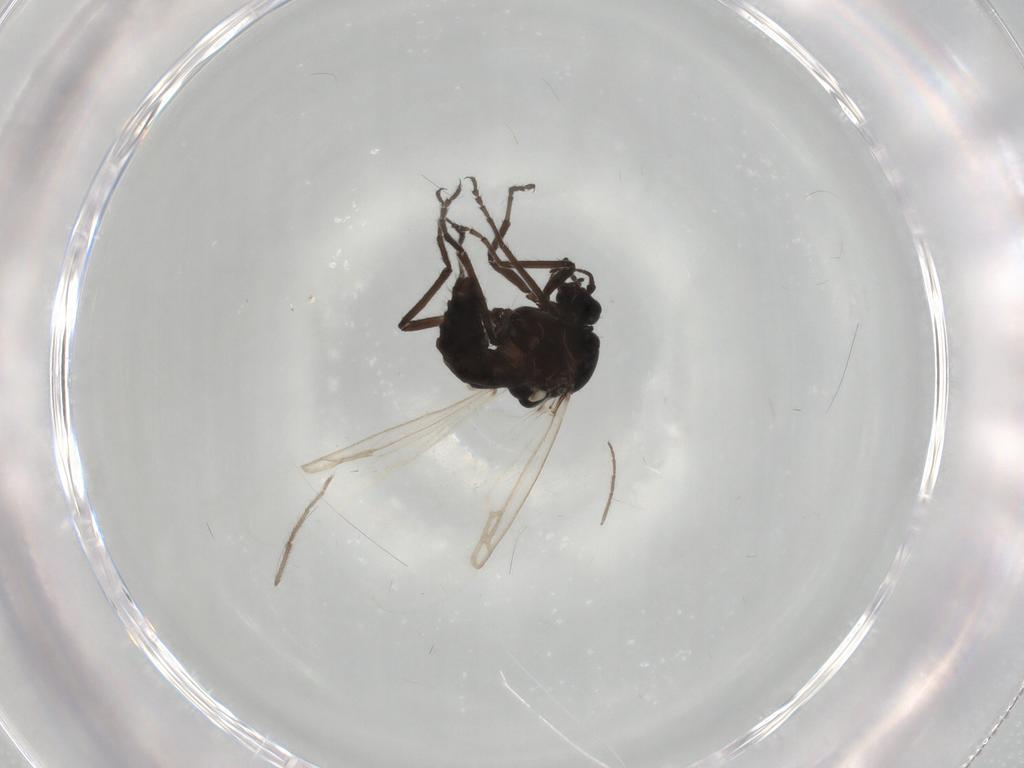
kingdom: Animalia
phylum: Arthropoda
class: Insecta
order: Diptera
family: Ceratopogonidae
